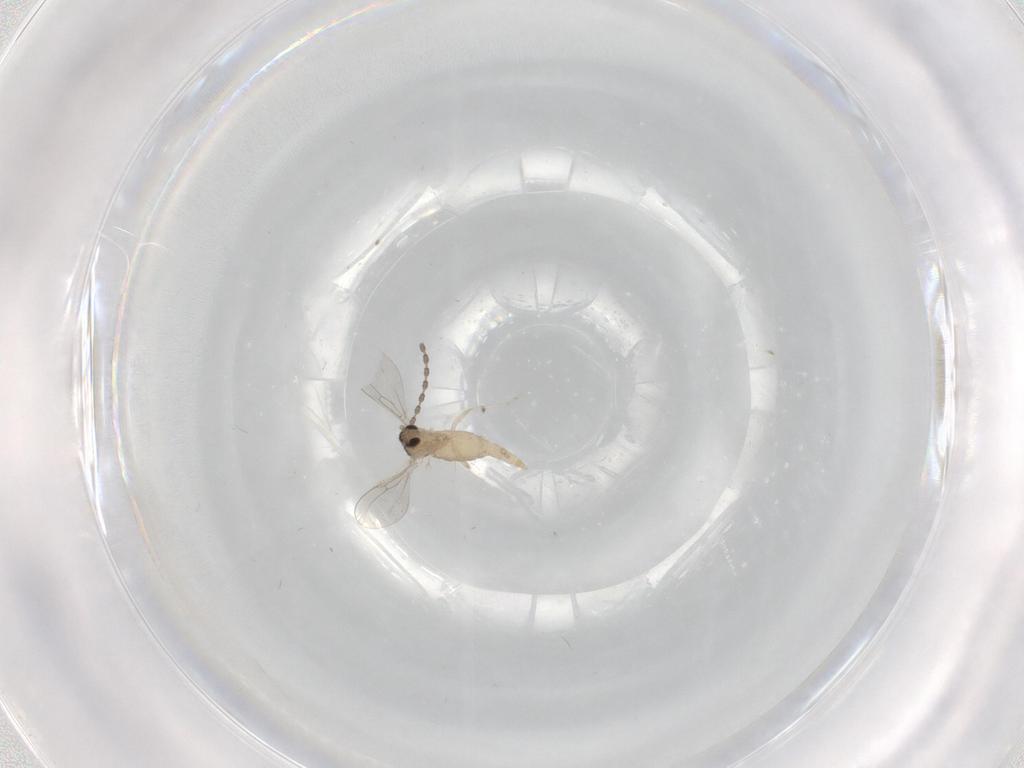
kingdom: Animalia
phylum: Arthropoda
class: Insecta
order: Diptera
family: Cecidomyiidae
